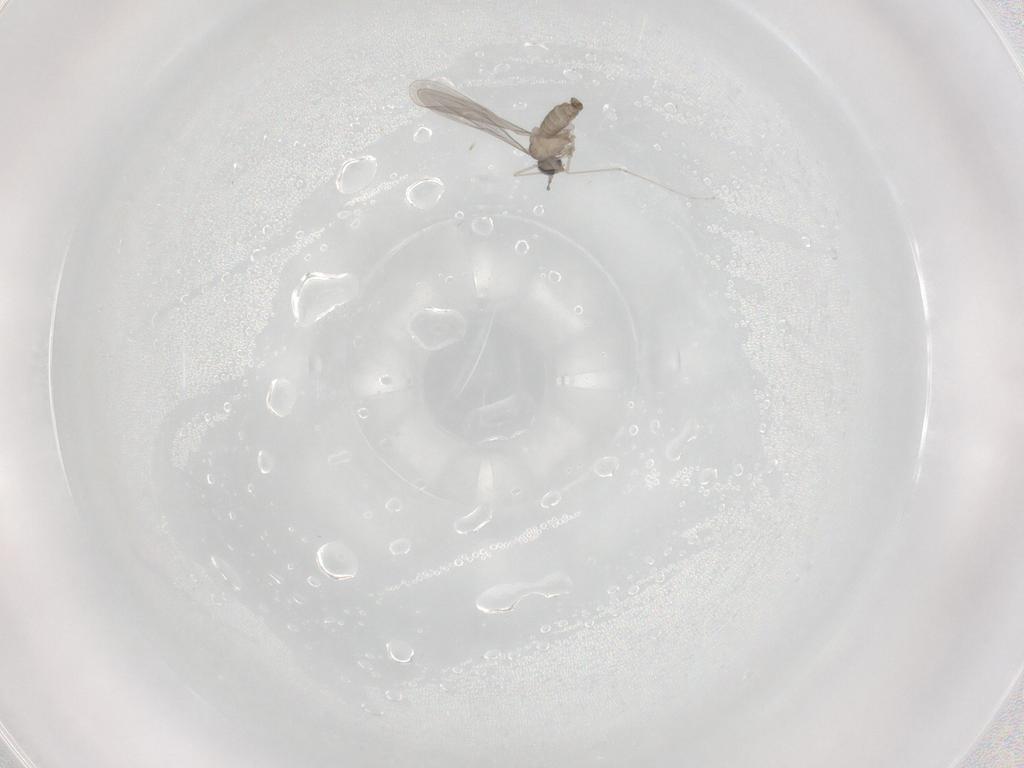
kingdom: Animalia
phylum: Arthropoda
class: Insecta
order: Diptera
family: Cecidomyiidae
